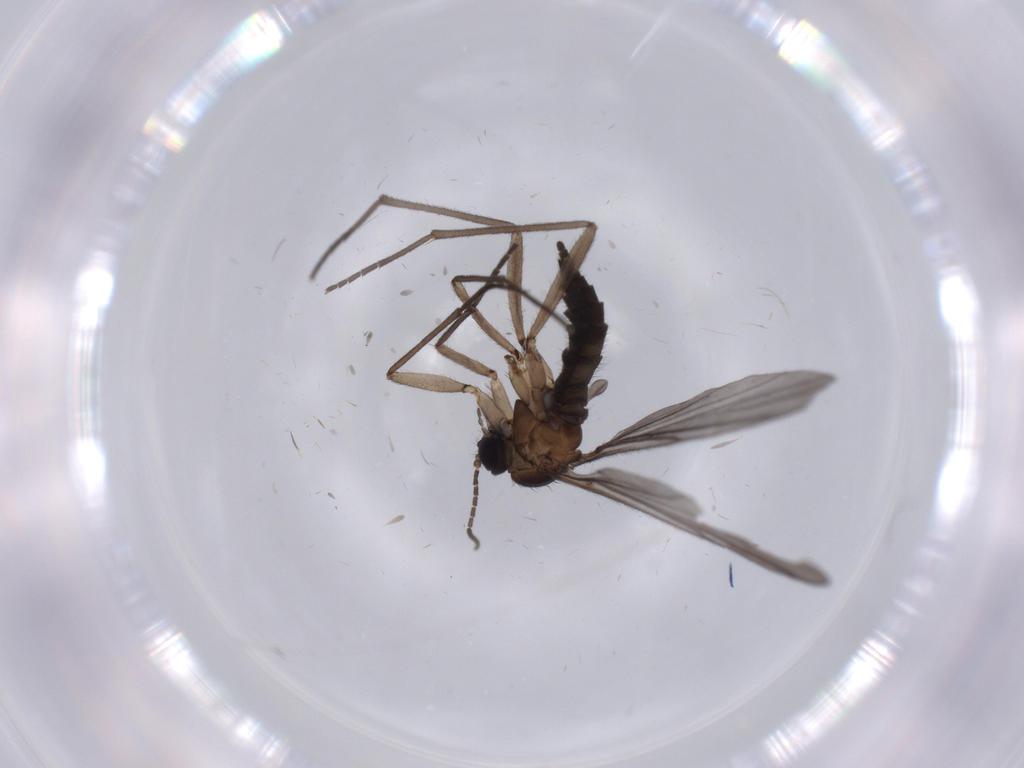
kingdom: Animalia
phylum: Arthropoda
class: Insecta
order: Diptera
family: Sciaridae
